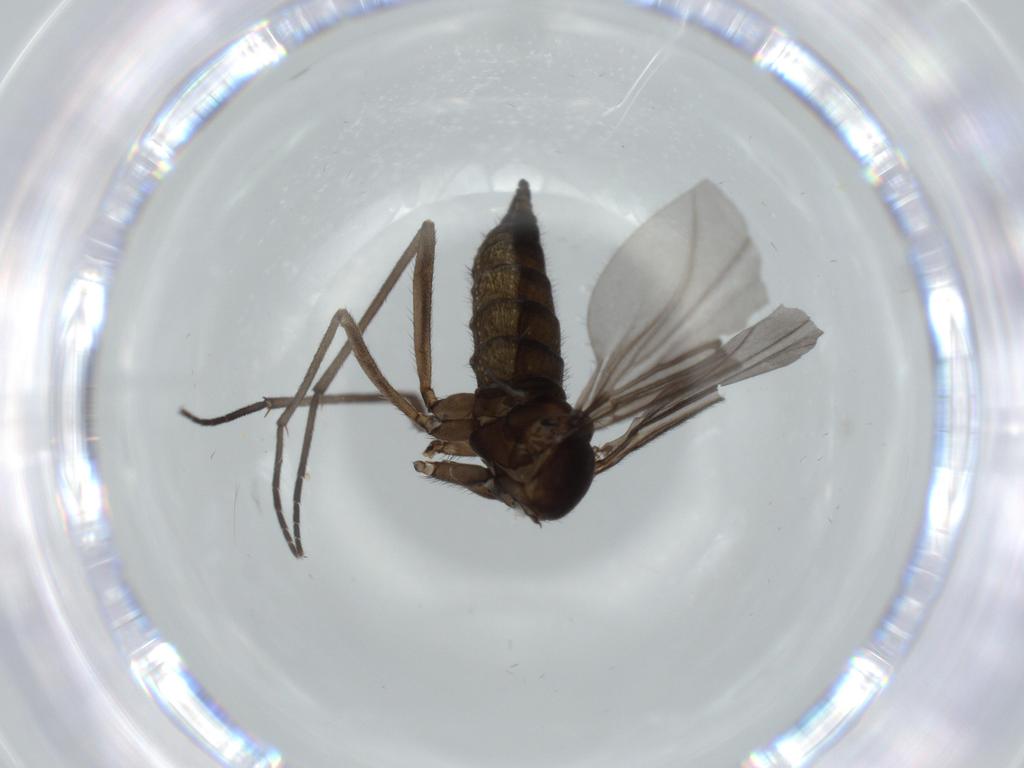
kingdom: Animalia
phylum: Arthropoda
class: Insecta
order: Diptera
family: Sciaridae
